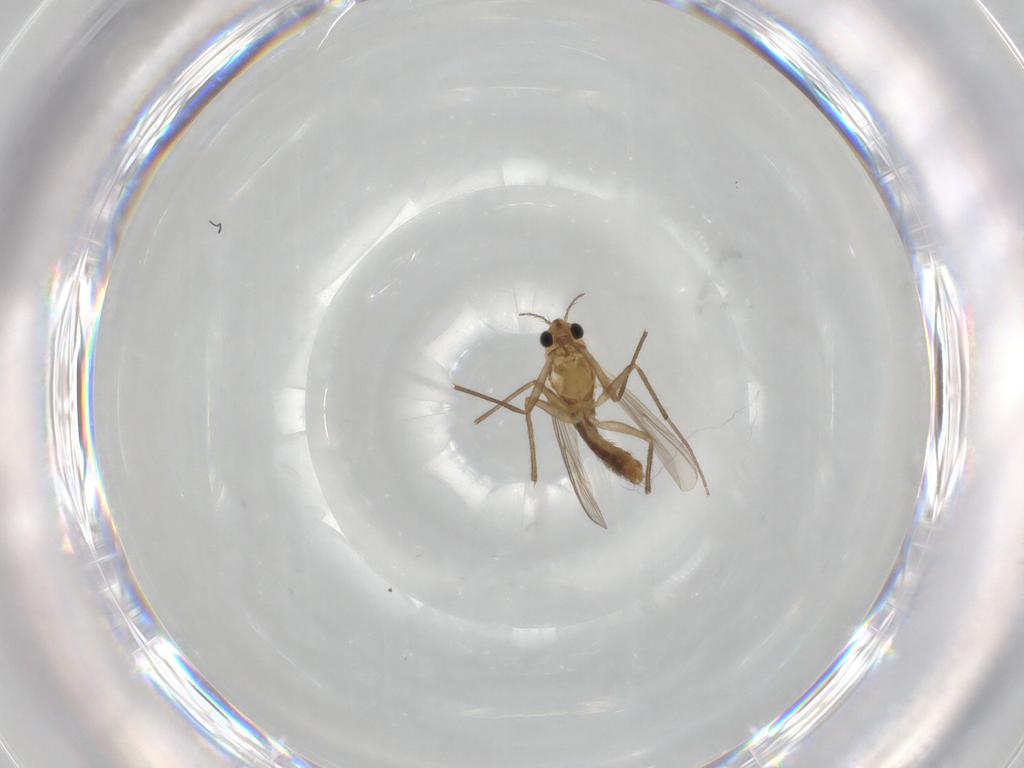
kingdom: Animalia
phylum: Arthropoda
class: Insecta
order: Diptera
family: Chironomidae
